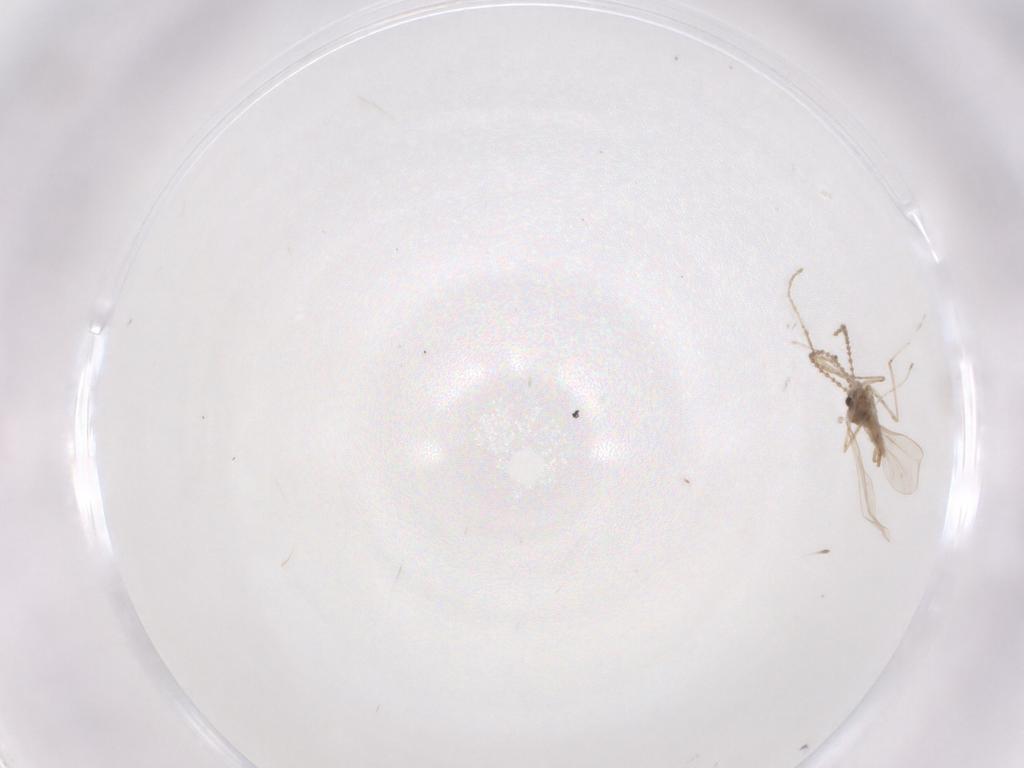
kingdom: Animalia
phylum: Arthropoda
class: Insecta
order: Diptera
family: Cecidomyiidae
